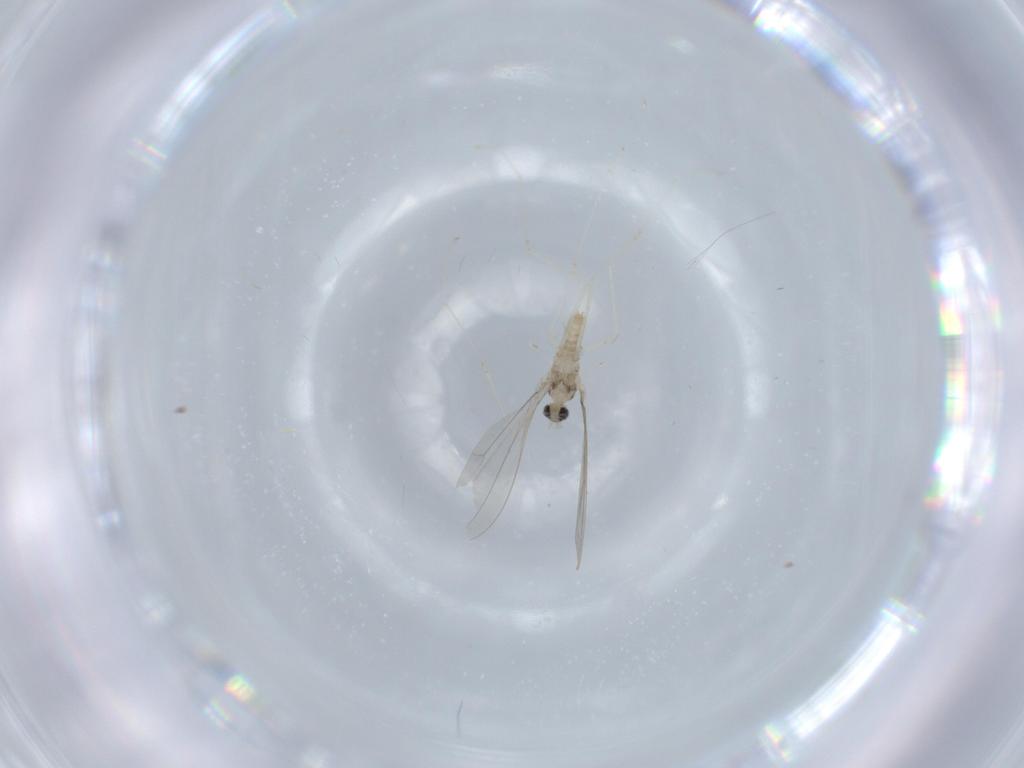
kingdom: Animalia
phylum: Arthropoda
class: Insecta
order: Diptera
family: Cecidomyiidae
